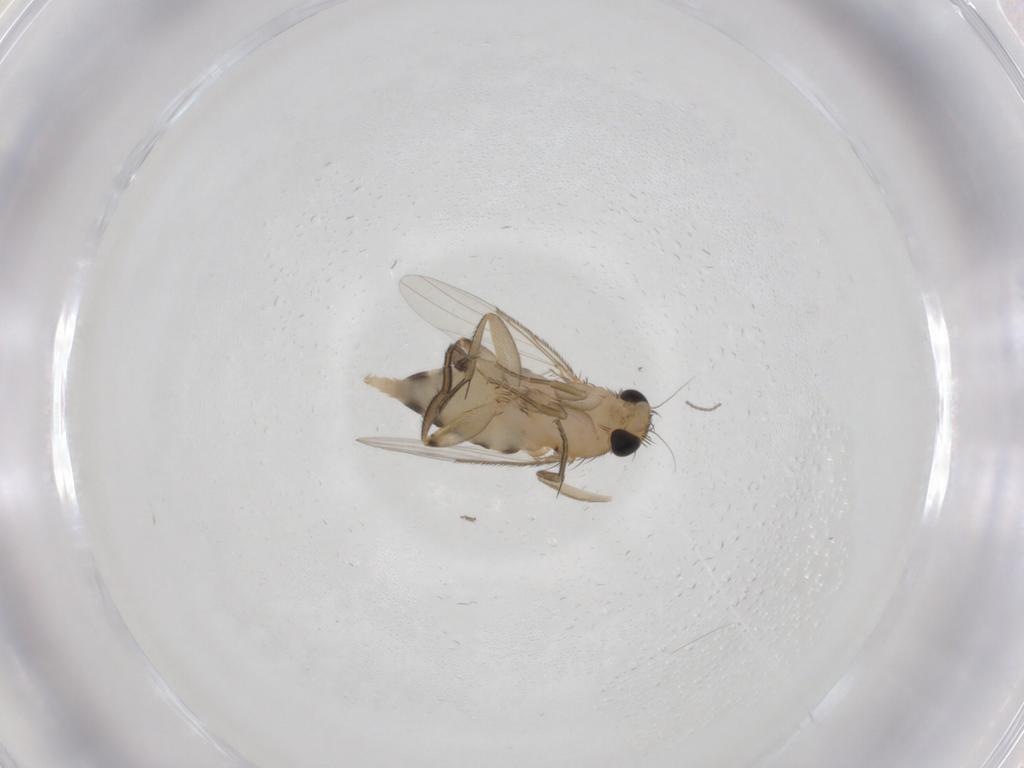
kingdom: Animalia
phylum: Arthropoda
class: Insecta
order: Diptera
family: Phoridae
